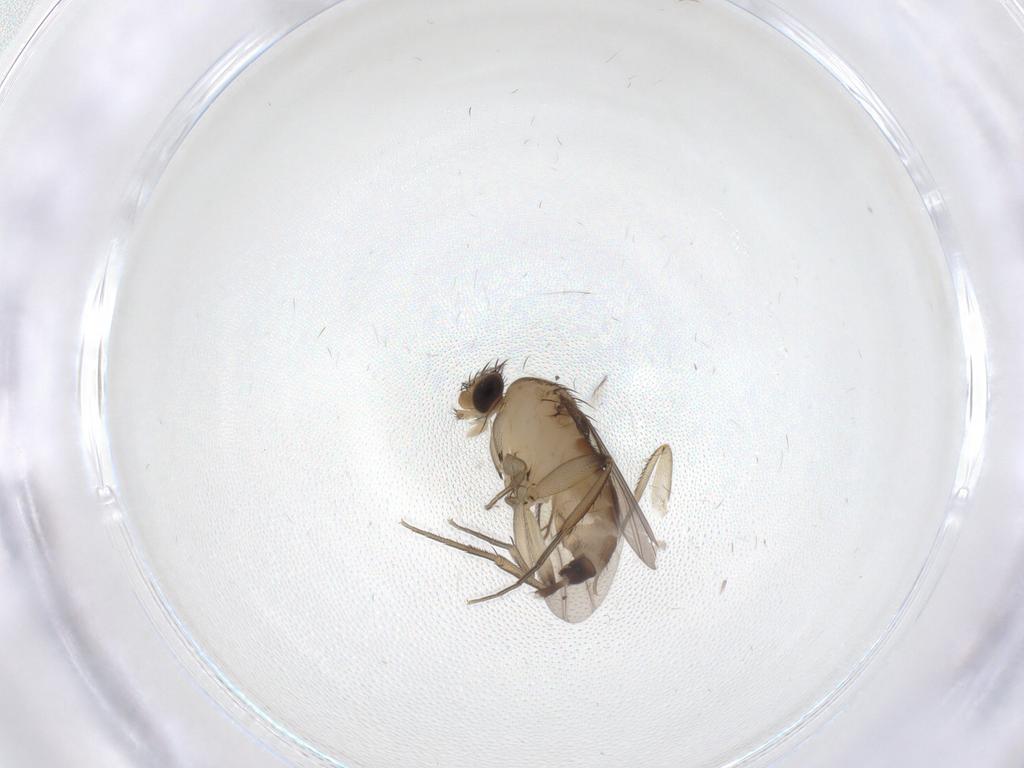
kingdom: Animalia
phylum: Arthropoda
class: Insecta
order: Diptera
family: Phoridae
